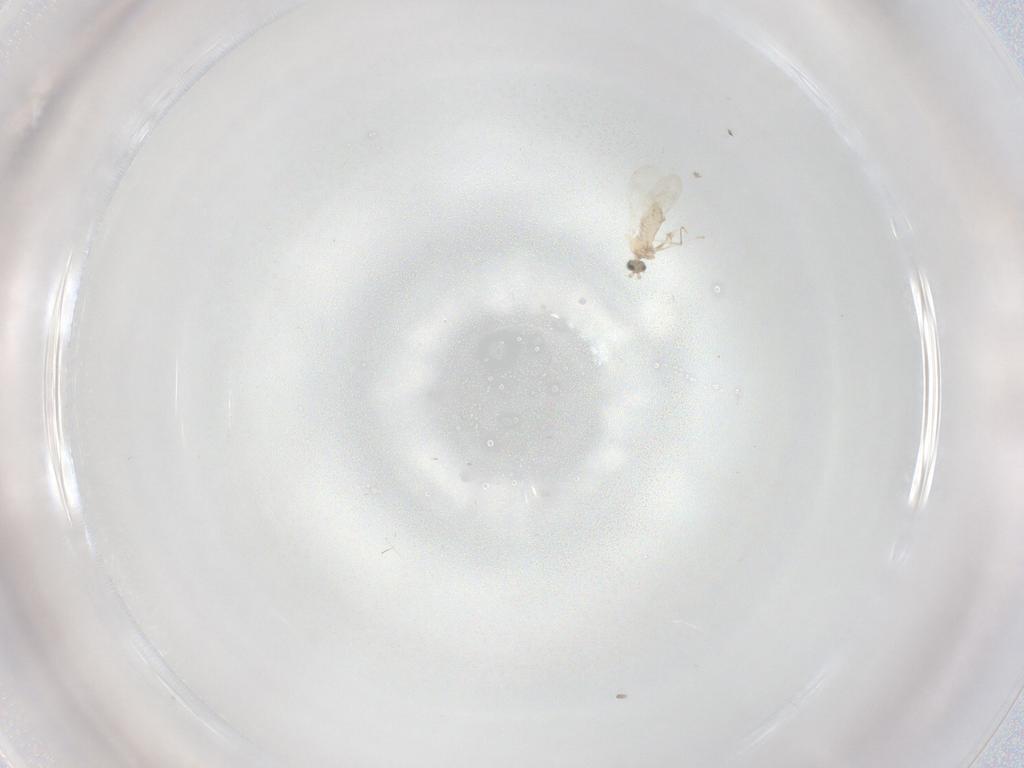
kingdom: Animalia
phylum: Arthropoda
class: Insecta
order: Diptera
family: Cecidomyiidae
